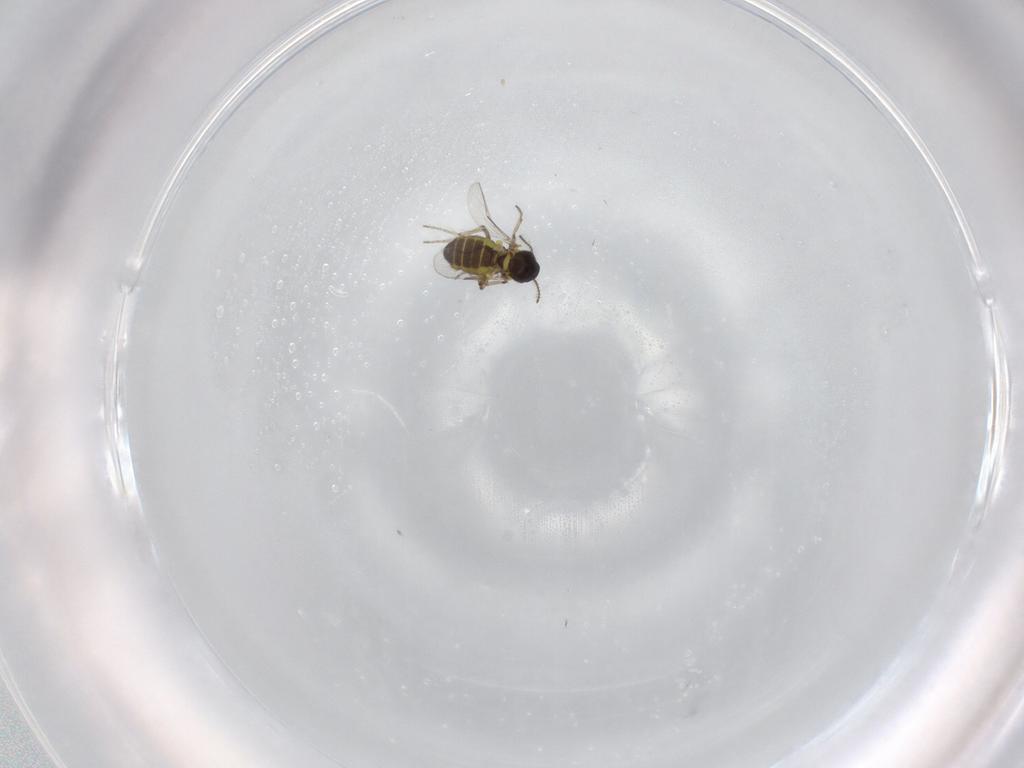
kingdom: Animalia
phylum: Arthropoda
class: Insecta
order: Diptera
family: Ceratopogonidae
